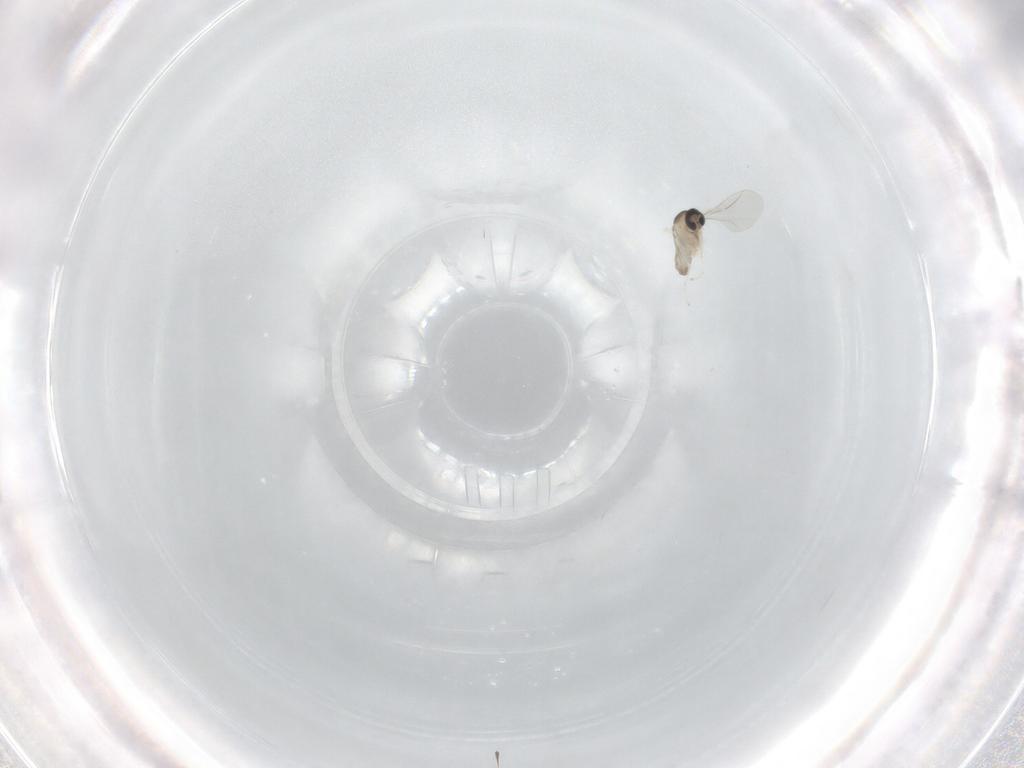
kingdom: Animalia
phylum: Arthropoda
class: Insecta
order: Diptera
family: Cecidomyiidae
